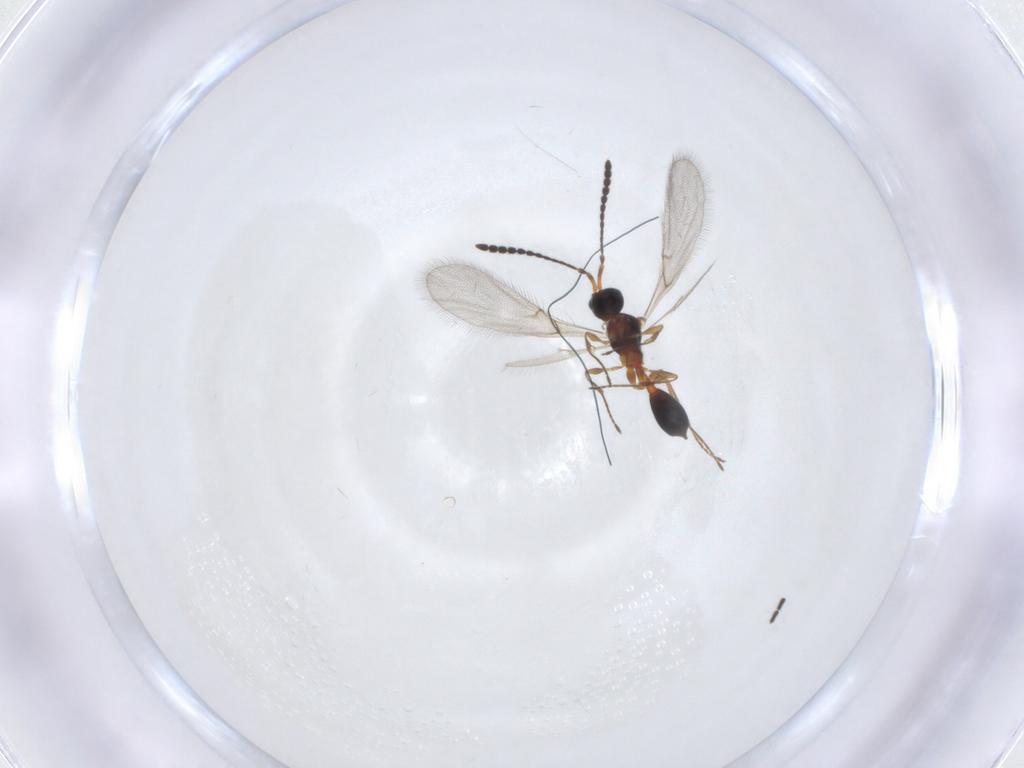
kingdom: Animalia
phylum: Arthropoda
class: Insecta
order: Hymenoptera
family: Diapriidae
